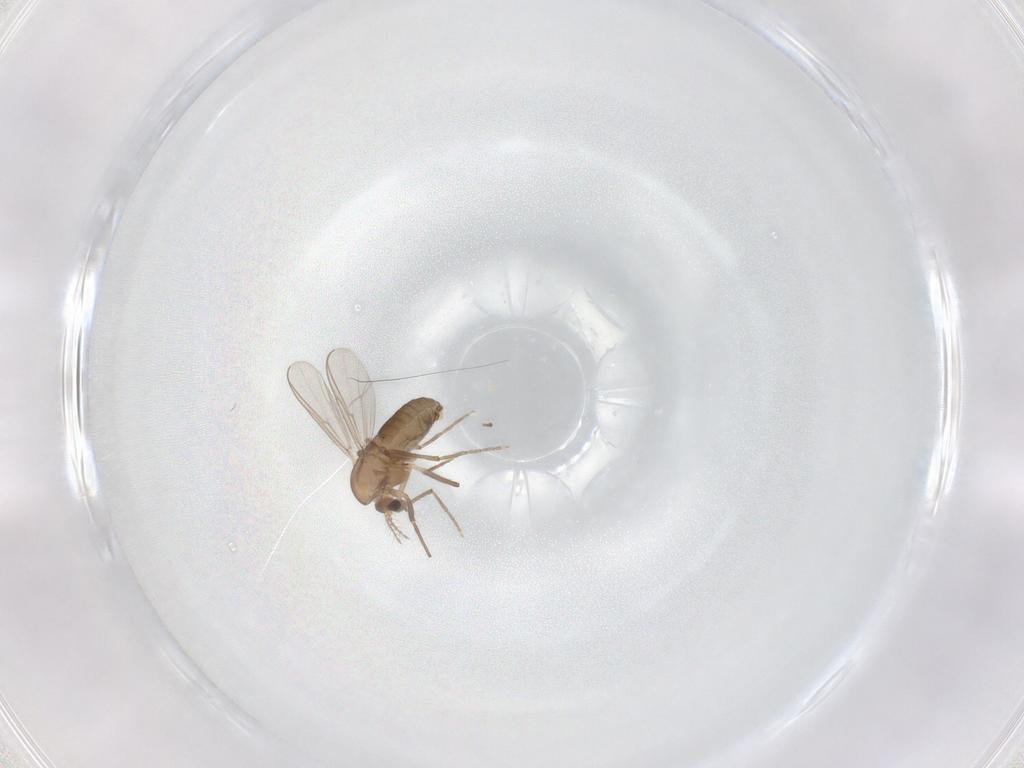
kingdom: Animalia
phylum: Arthropoda
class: Insecta
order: Diptera
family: Chironomidae
